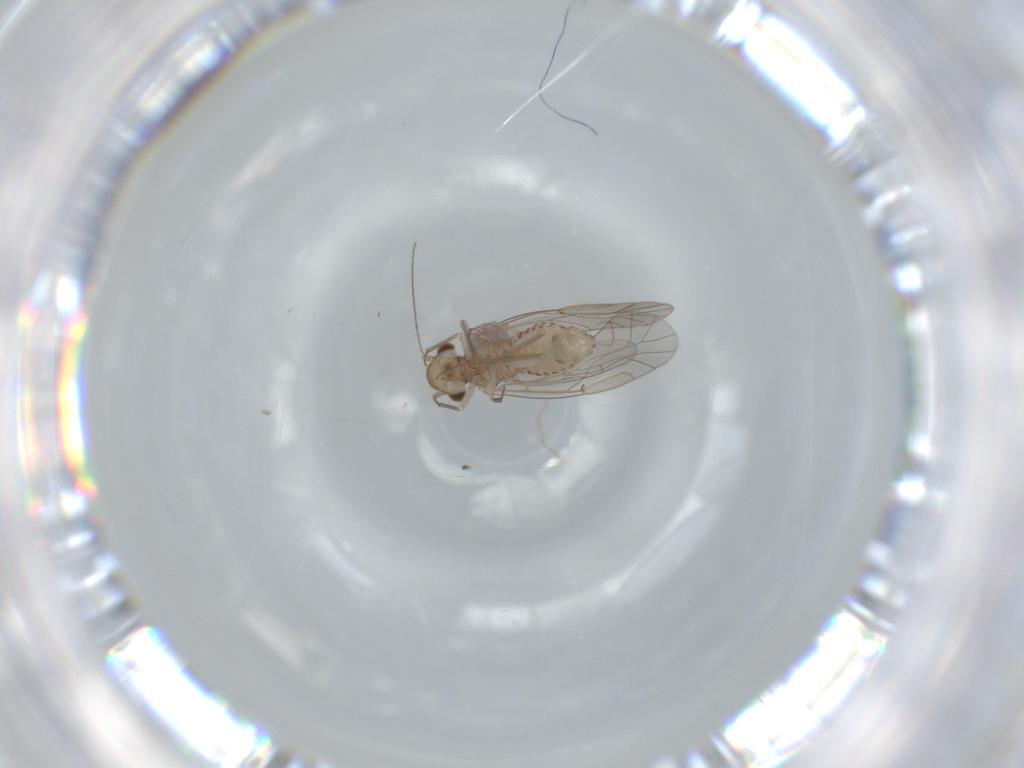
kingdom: Animalia
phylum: Arthropoda
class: Insecta
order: Psocodea
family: Lachesillidae
